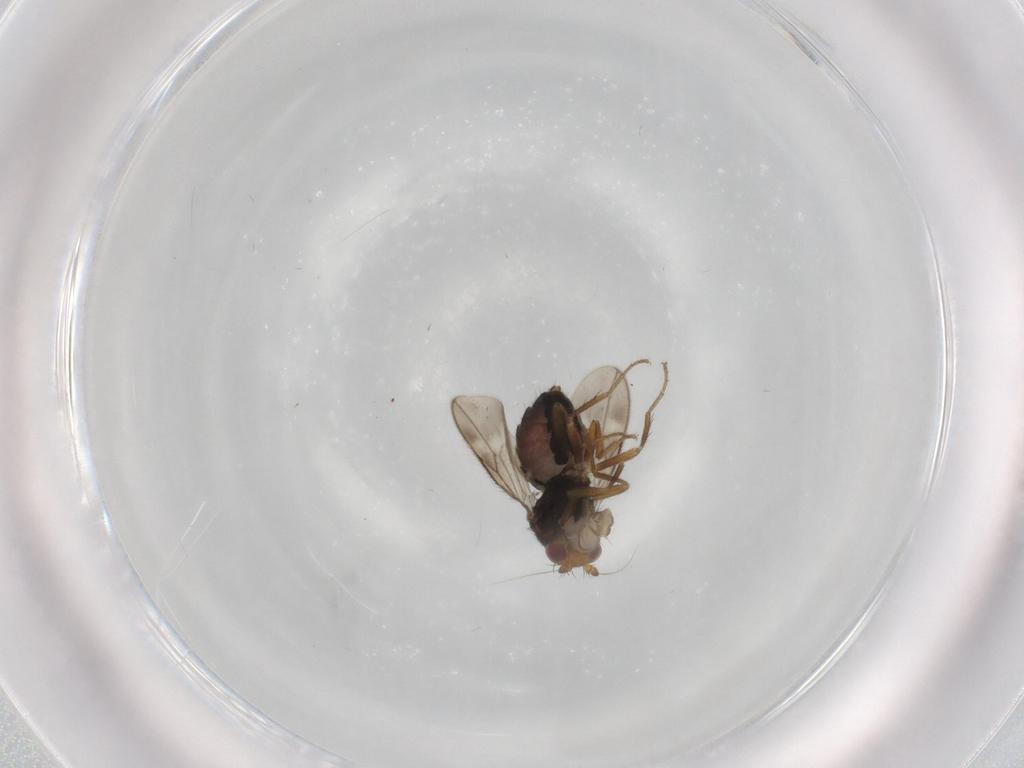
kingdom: Animalia
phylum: Arthropoda
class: Insecta
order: Diptera
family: Sphaeroceridae
